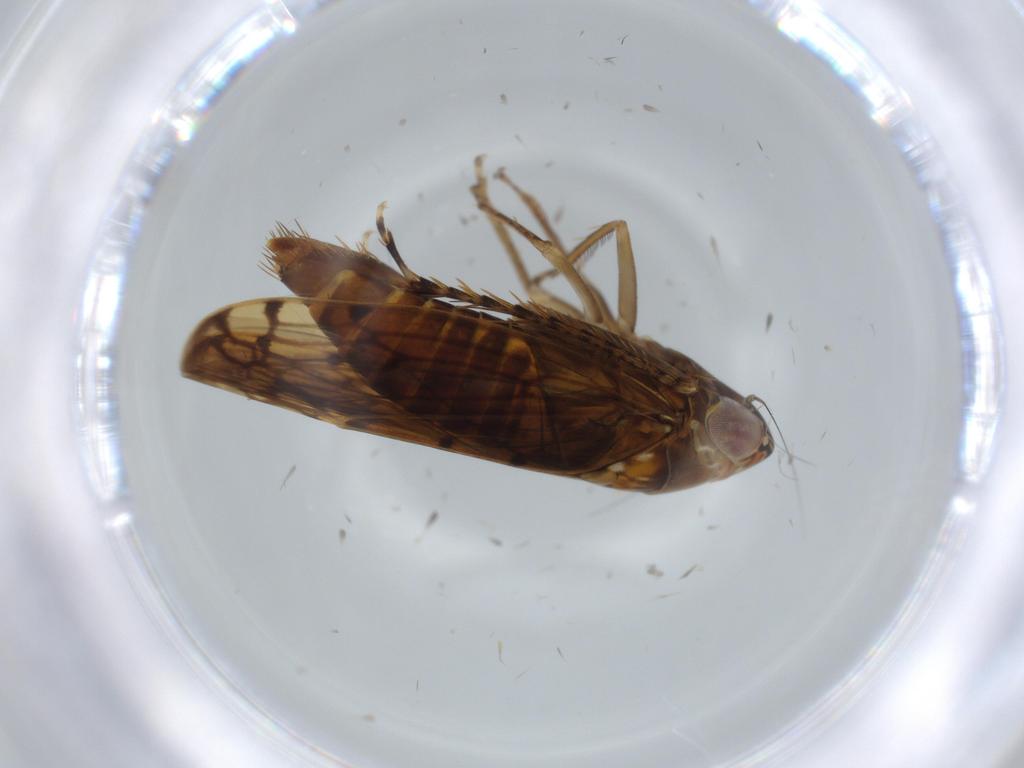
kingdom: Animalia
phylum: Arthropoda
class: Insecta
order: Hemiptera
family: Cicadellidae
